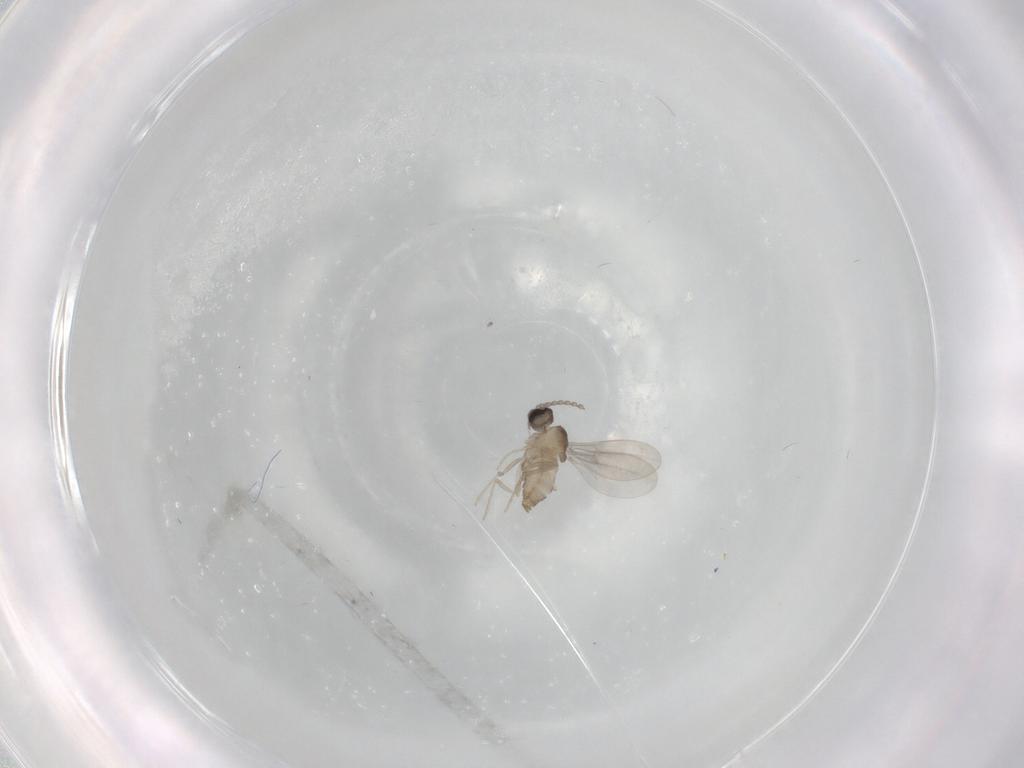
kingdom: Animalia
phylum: Arthropoda
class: Insecta
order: Diptera
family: Cecidomyiidae
